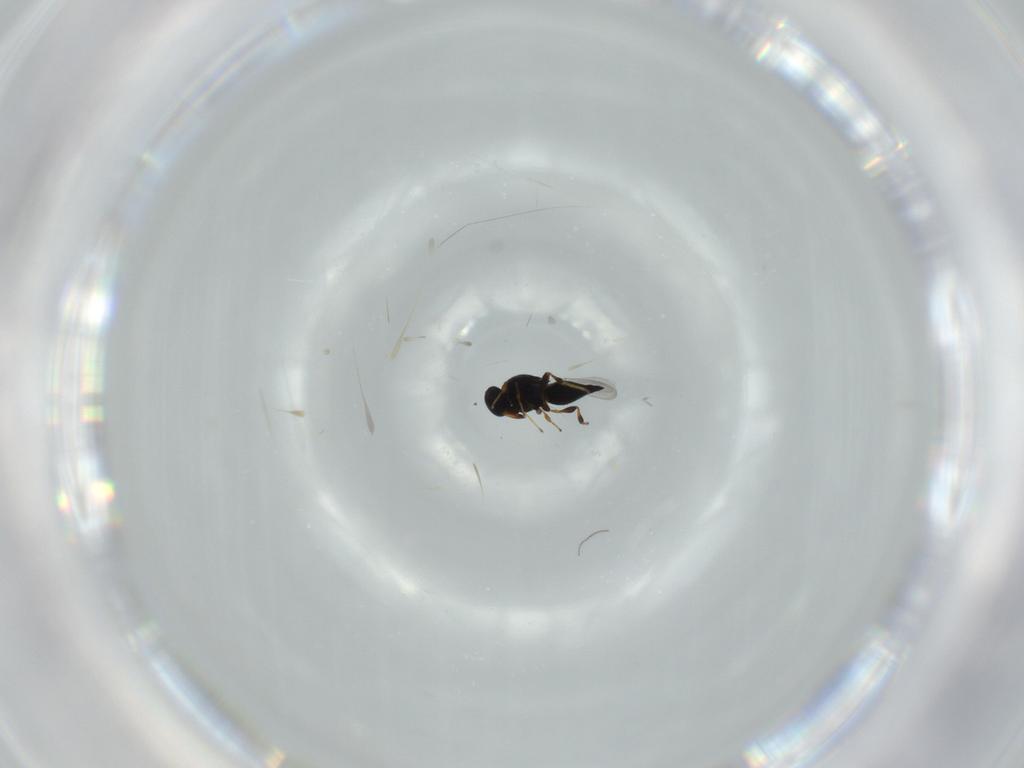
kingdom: Animalia
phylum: Arthropoda
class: Insecta
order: Hymenoptera
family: Platygastridae
